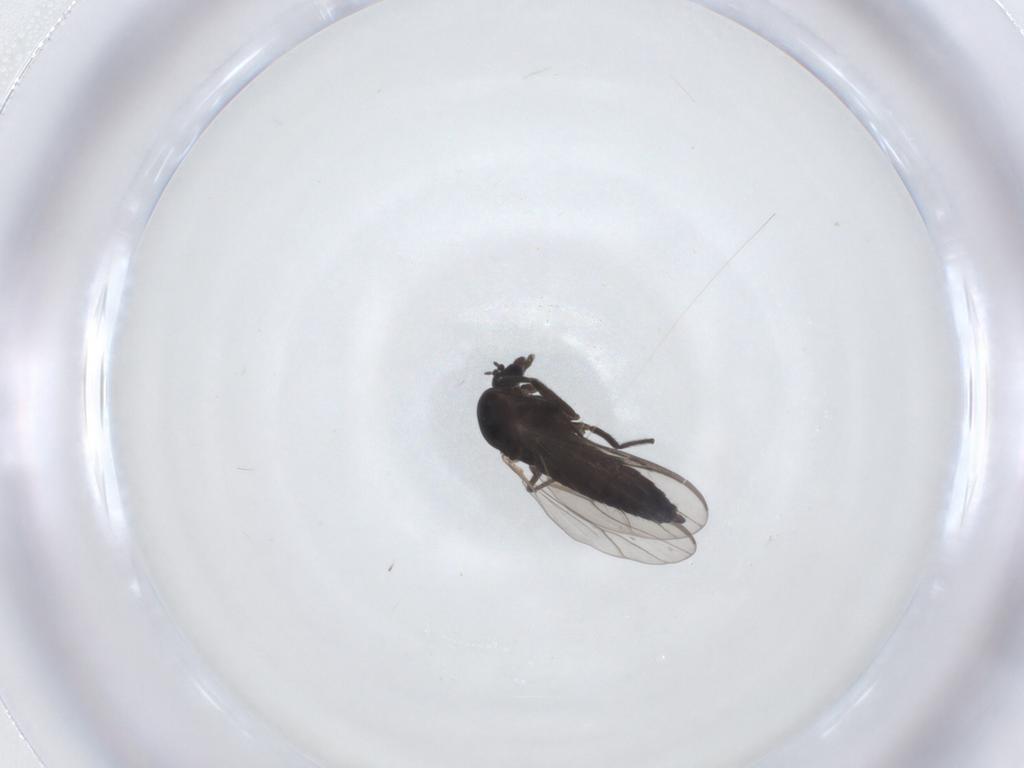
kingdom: Animalia
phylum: Arthropoda
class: Insecta
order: Diptera
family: Chironomidae
